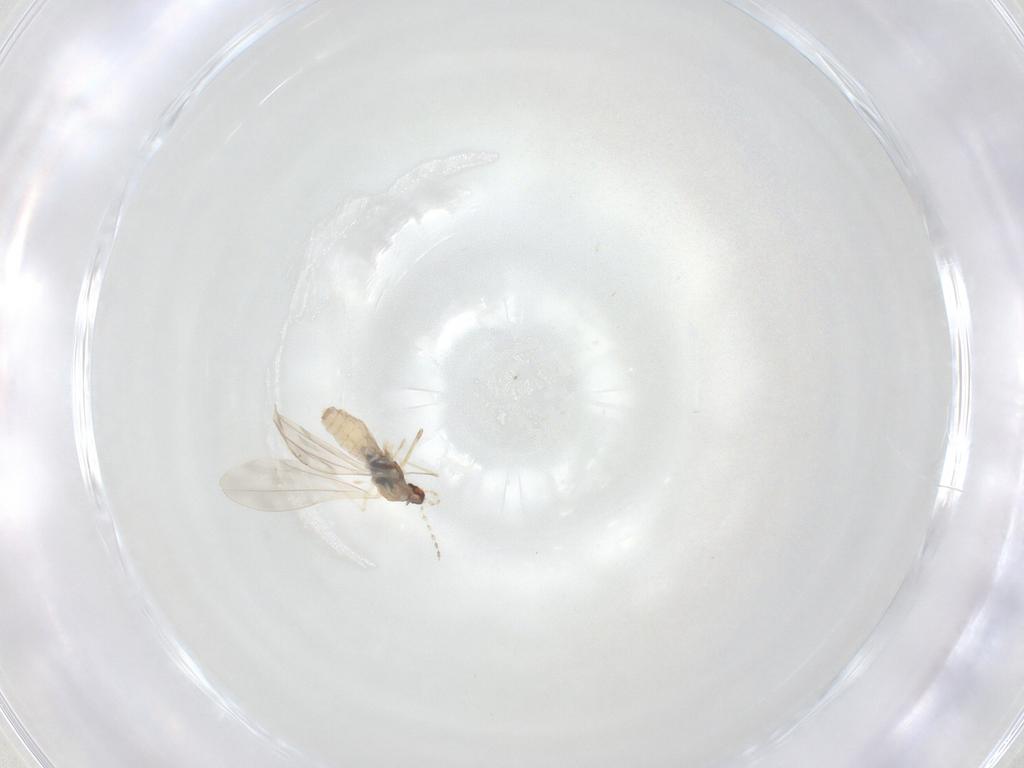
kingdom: Animalia
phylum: Arthropoda
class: Insecta
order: Diptera
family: Cecidomyiidae
